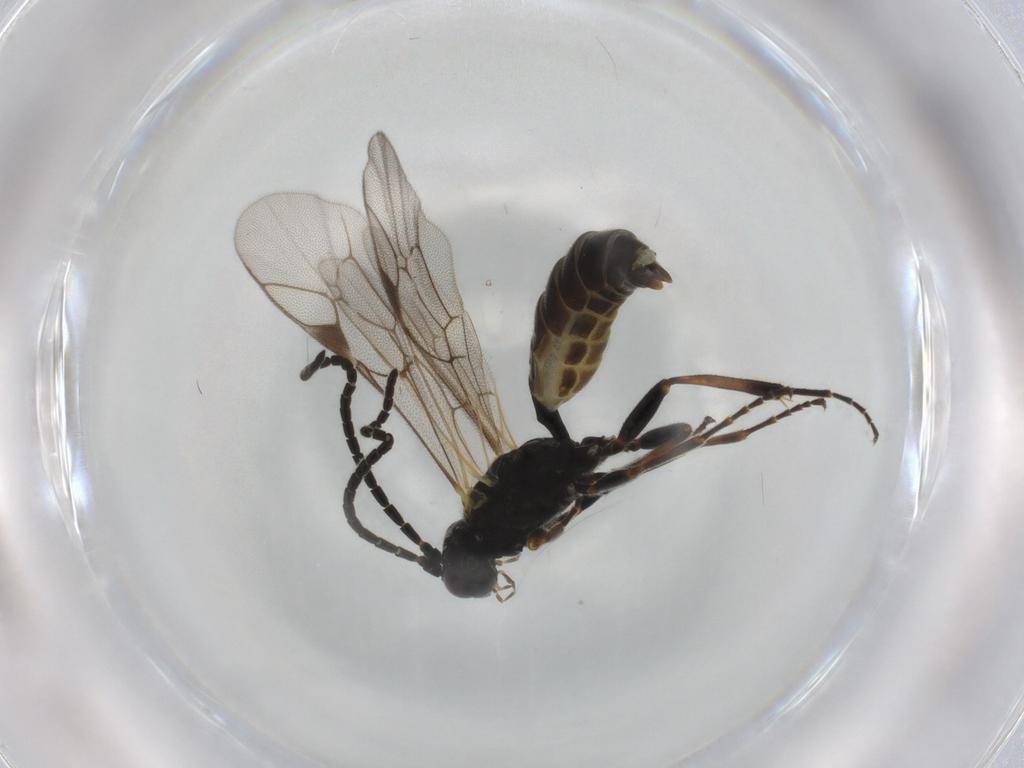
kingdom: Animalia
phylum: Arthropoda
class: Insecta
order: Hymenoptera
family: Ichneumonidae
